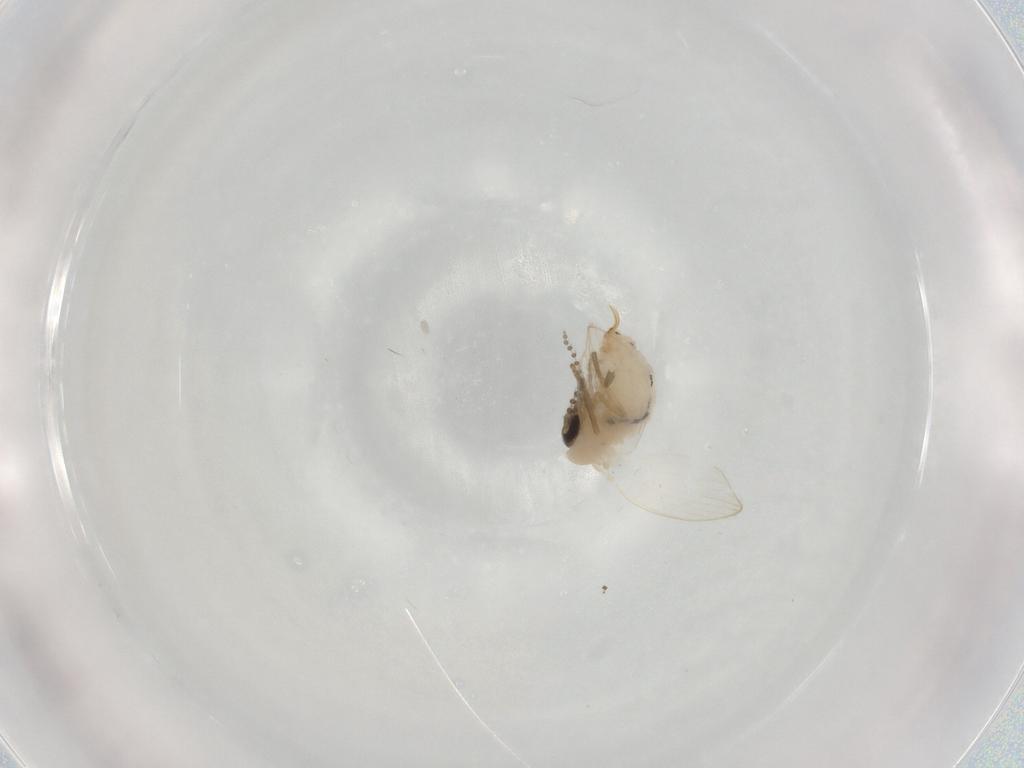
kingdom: Animalia
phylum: Arthropoda
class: Insecta
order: Diptera
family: Psychodidae
